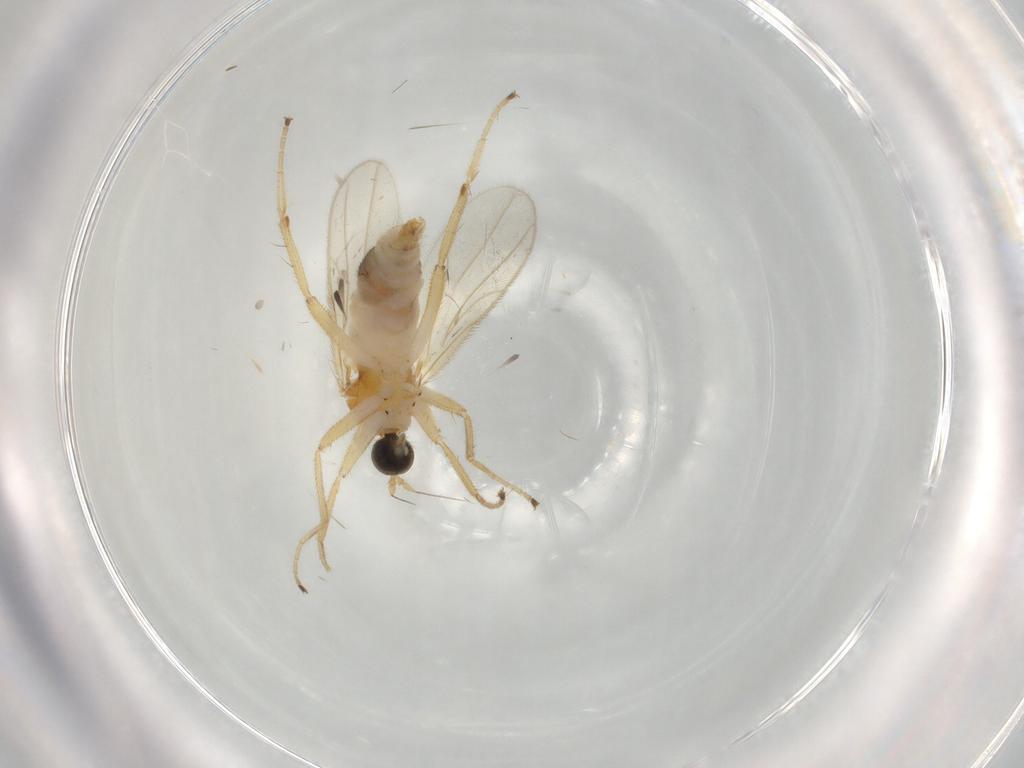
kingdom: Animalia
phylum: Arthropoda
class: Insecta
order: Diptera
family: Hybotidae
